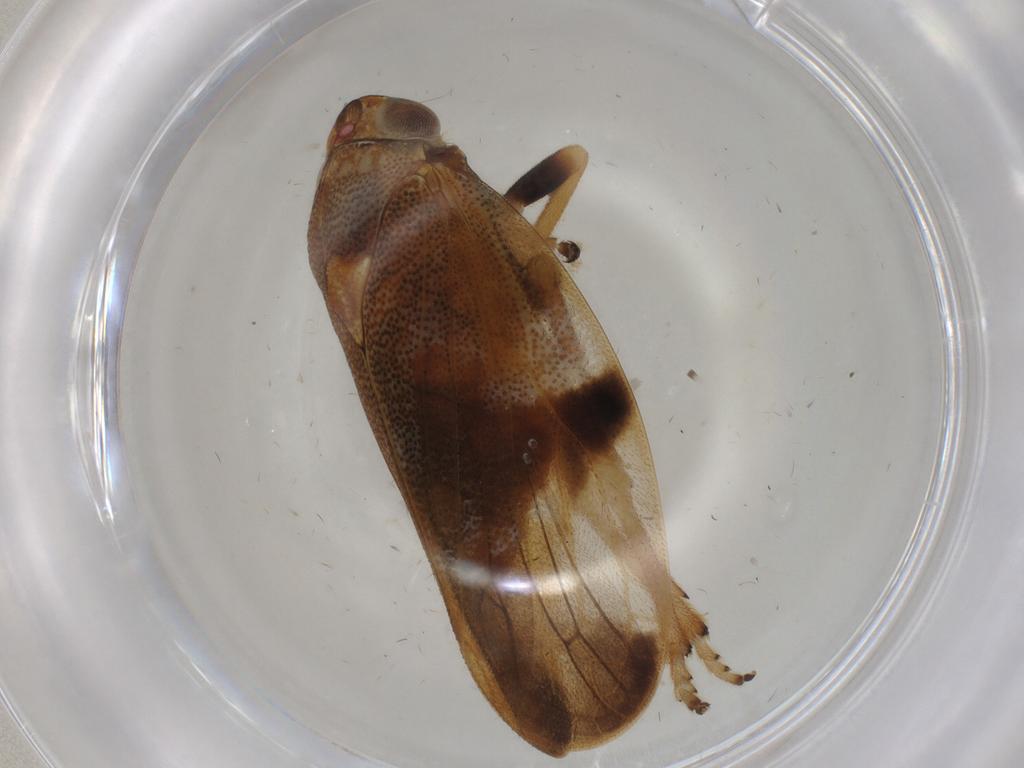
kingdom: Animalia
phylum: Arthropoda
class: Insecta
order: Hemiptera
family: Aphrophoridae
